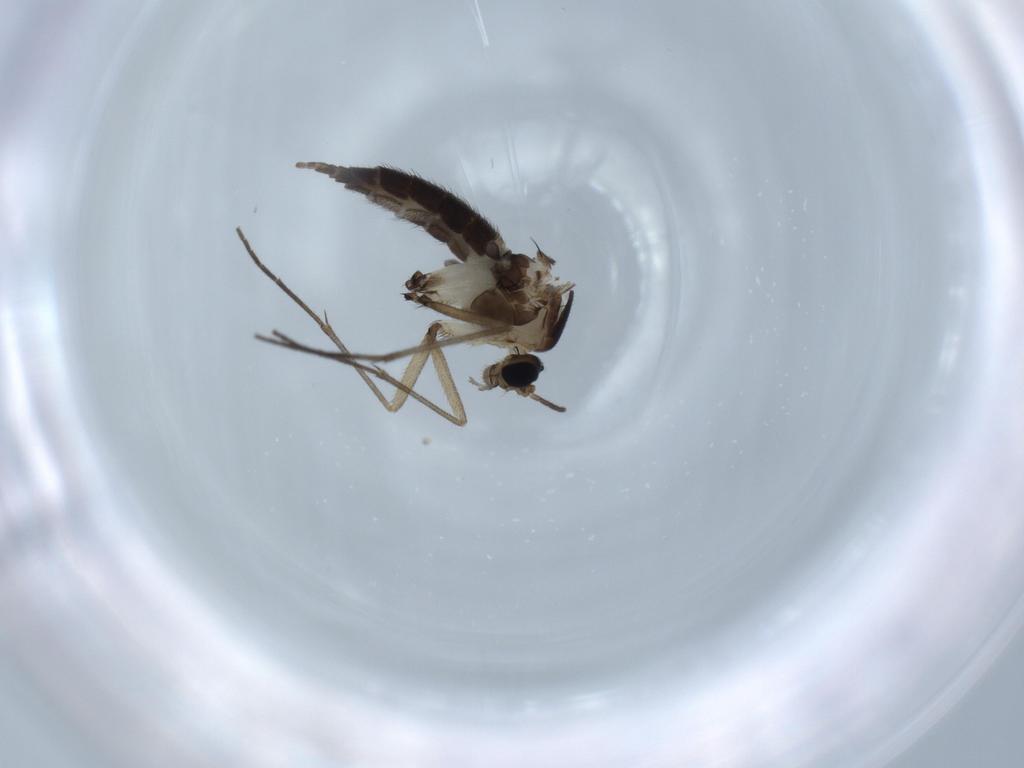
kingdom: Animalia
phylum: Arthropoda
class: Insecta
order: Diptera
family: Sciaridae
